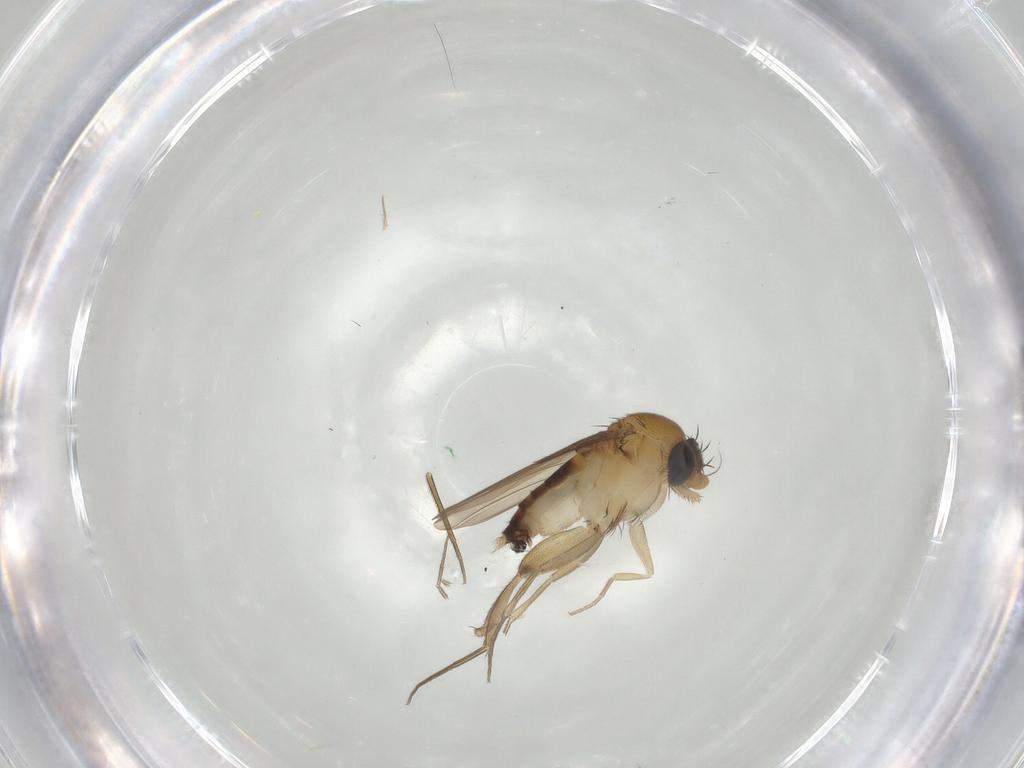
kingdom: Animalia
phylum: Arthropoda
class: Insecta
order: Diptera
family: Phoridae
